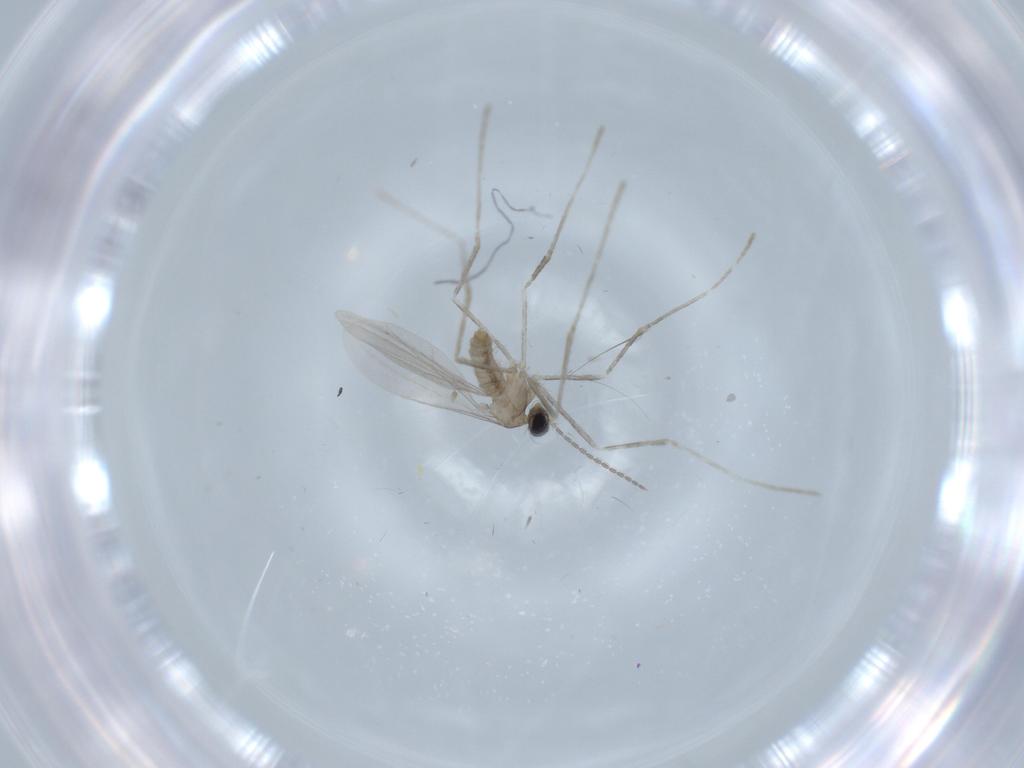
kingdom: Animalia
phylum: Arthropoda
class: Insecta
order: Diptera
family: Cecidomyiidae
